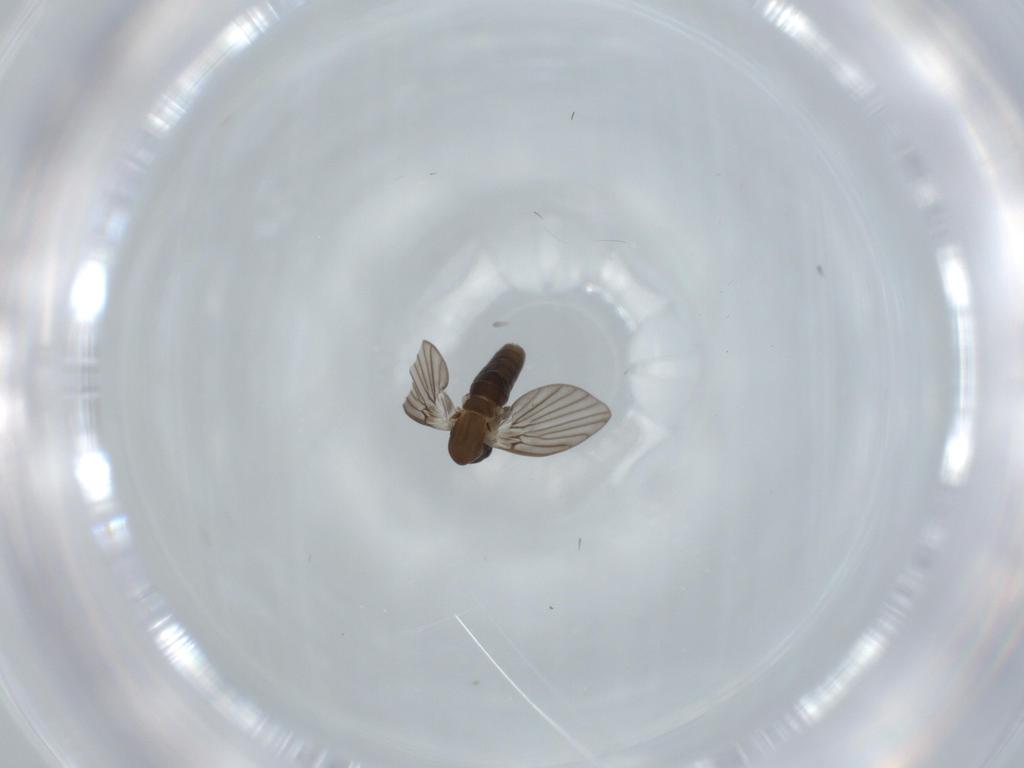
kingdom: Animalia
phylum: Arthropoda
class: Insecta
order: Diptera
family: Psychodidae
